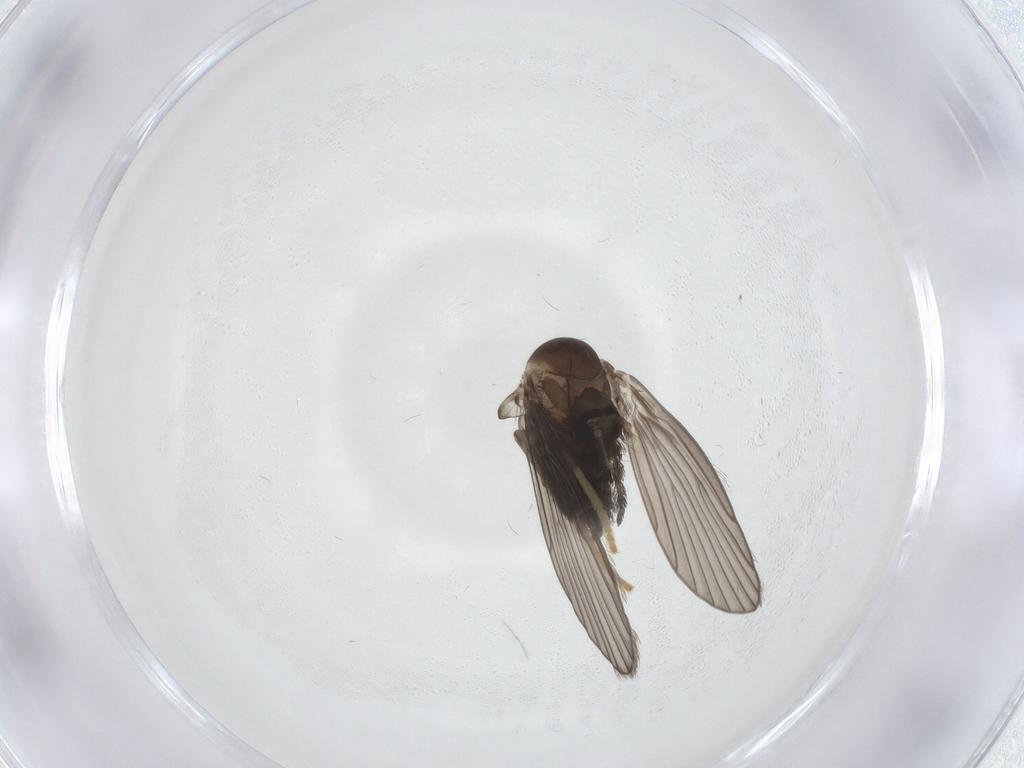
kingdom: Animalia
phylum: Arthropoda
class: Insecta
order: Diptera
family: Psychodidae
